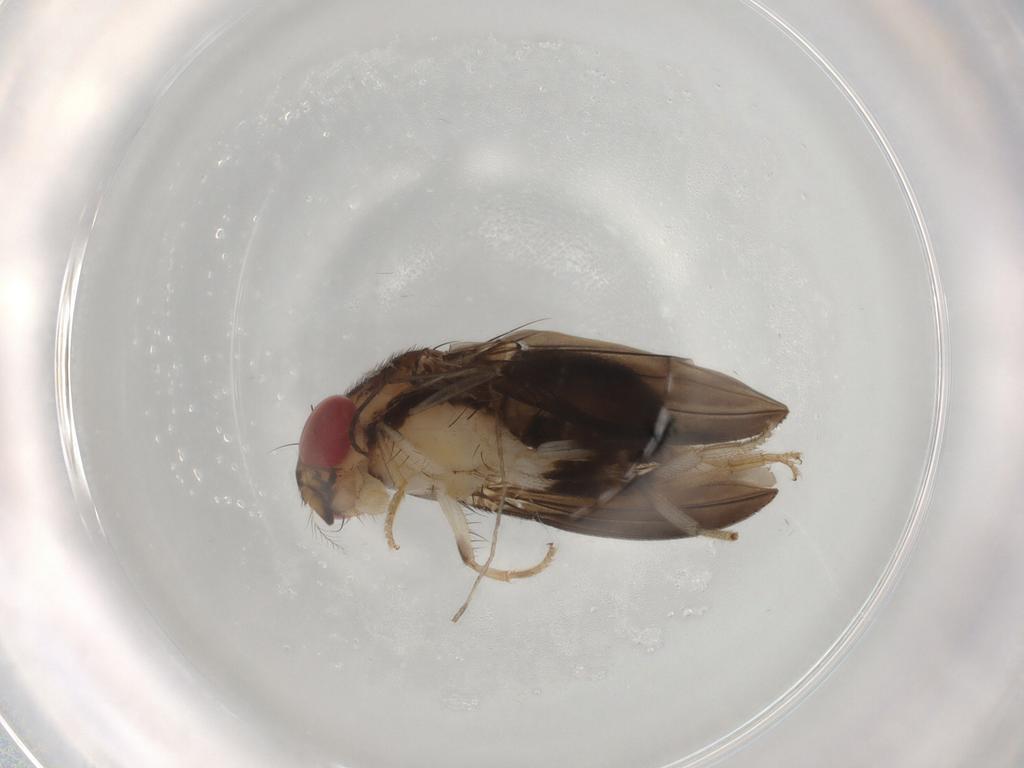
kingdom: Animalia
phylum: Arthropoda
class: Insecta
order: Diptera
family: Drosophilidae
